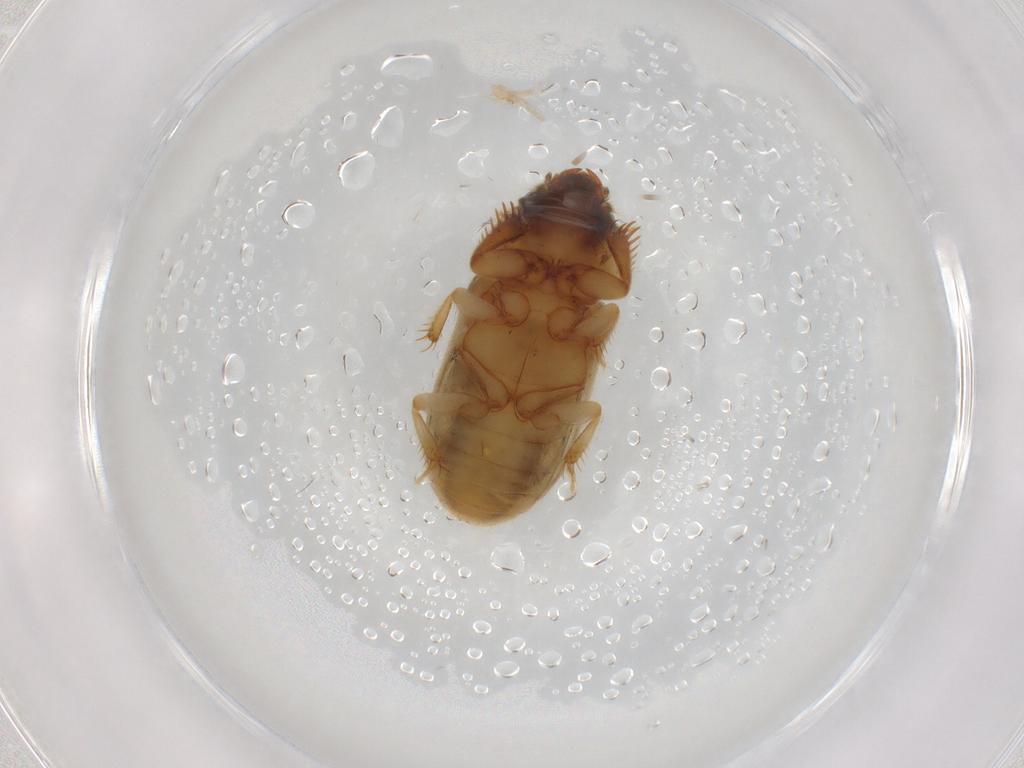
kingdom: Animalia
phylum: Arthropoda
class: Insecta
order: Coleoptera
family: Heteroceridae
